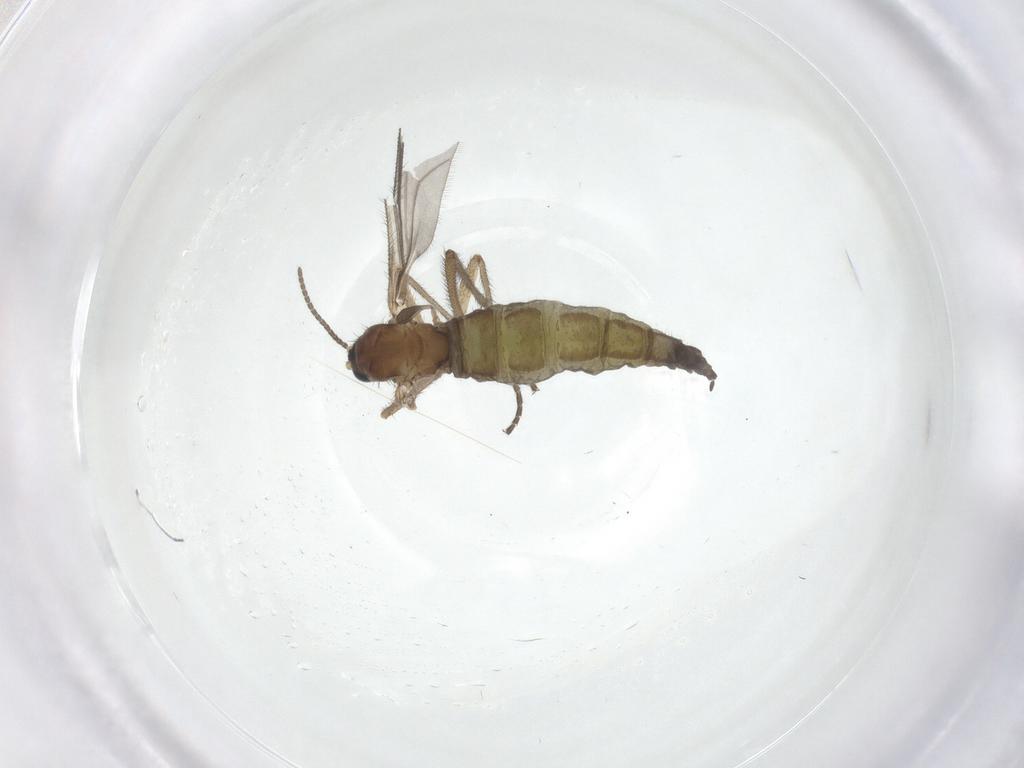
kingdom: Animalia
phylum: Arthropoda
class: Insecta
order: Diptera
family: Sciaridae
